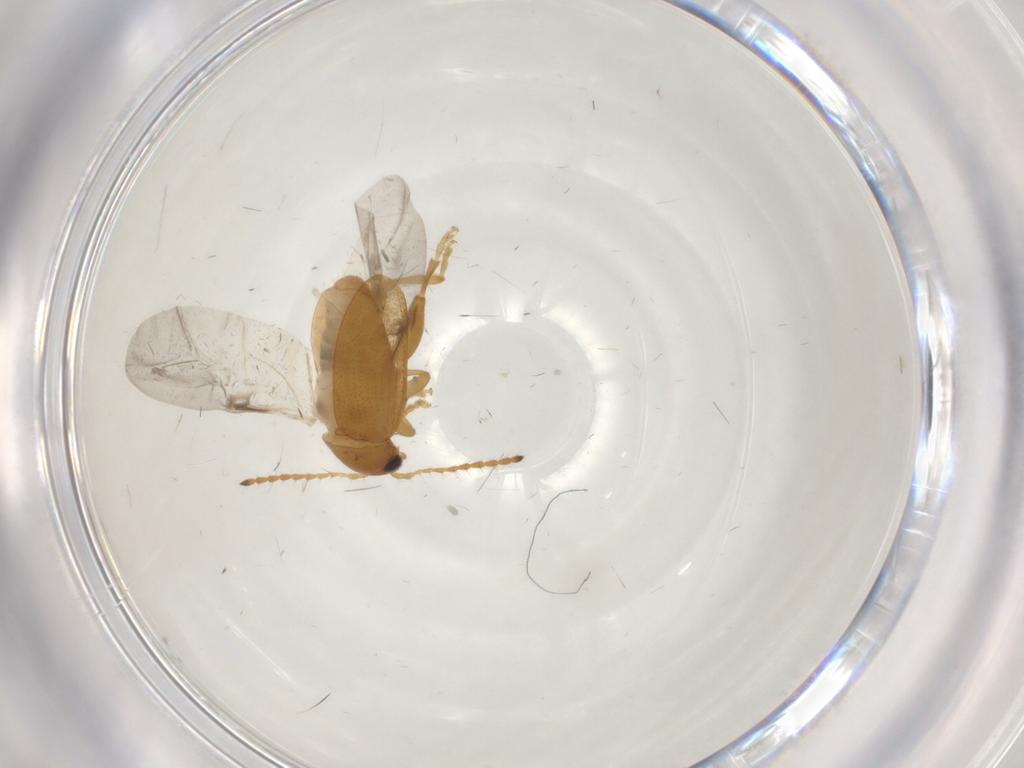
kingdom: Animalia
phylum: Arthropoda
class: Insecta
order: Coleoptera
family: Chrysomelidae
